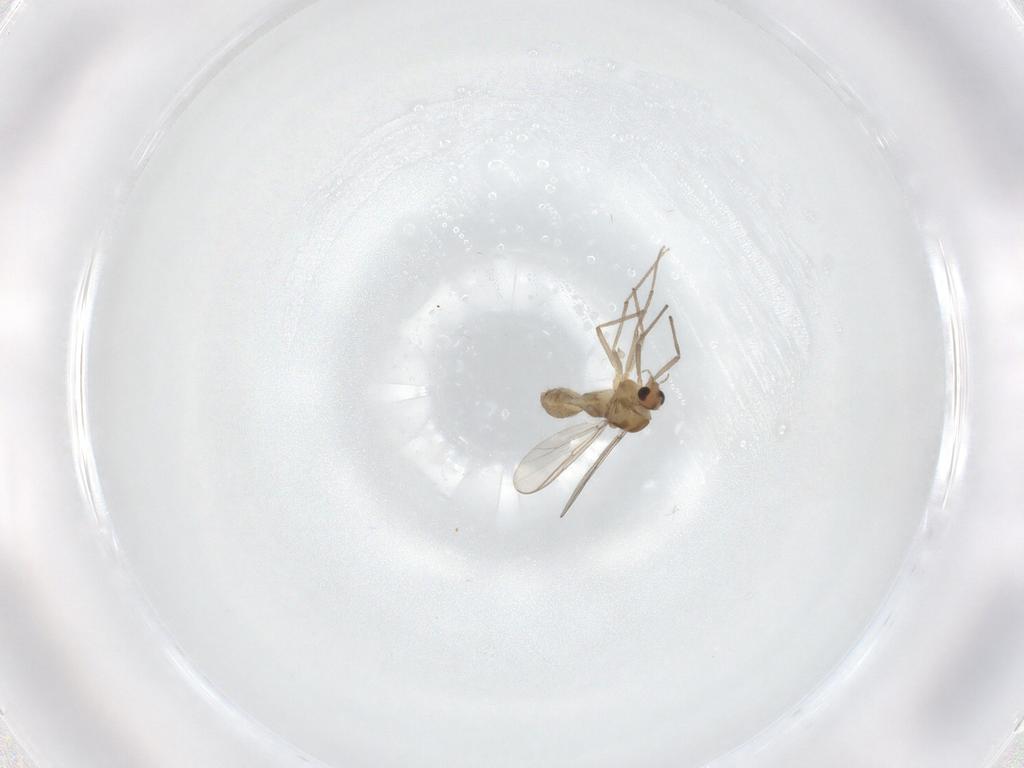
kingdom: Animalia
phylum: Arthropoda
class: Insecta
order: Diptera
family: Chironomidae
